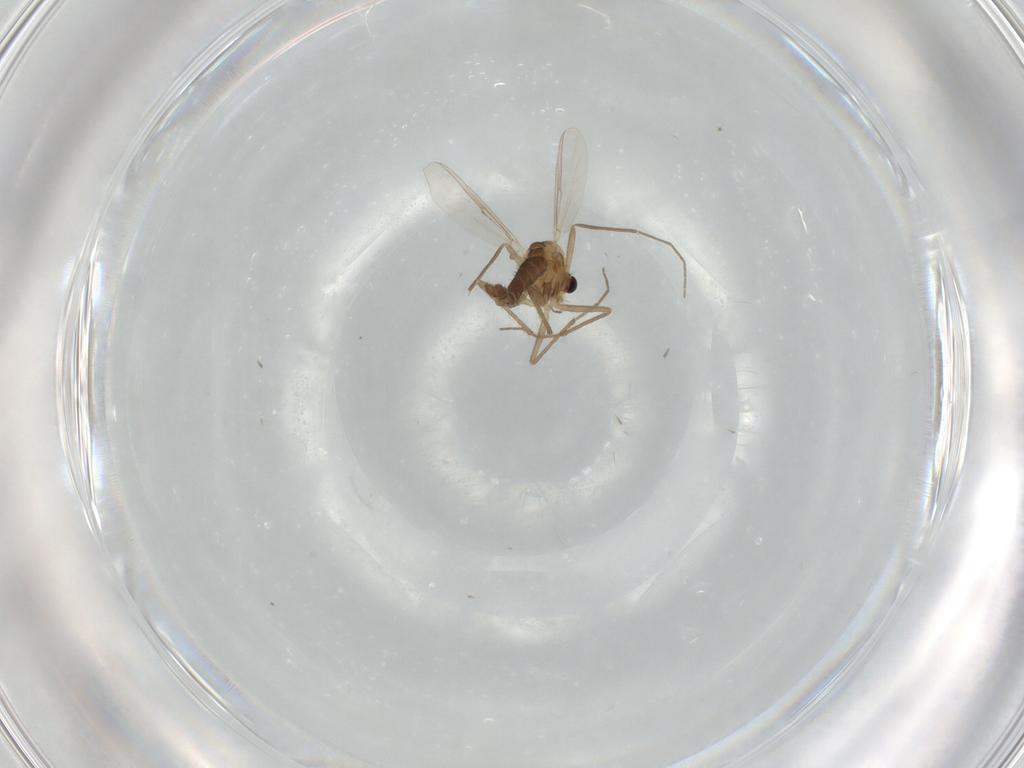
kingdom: Animalia
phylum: Arthropoda
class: Insecta
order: Diptera
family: Chironomidae
